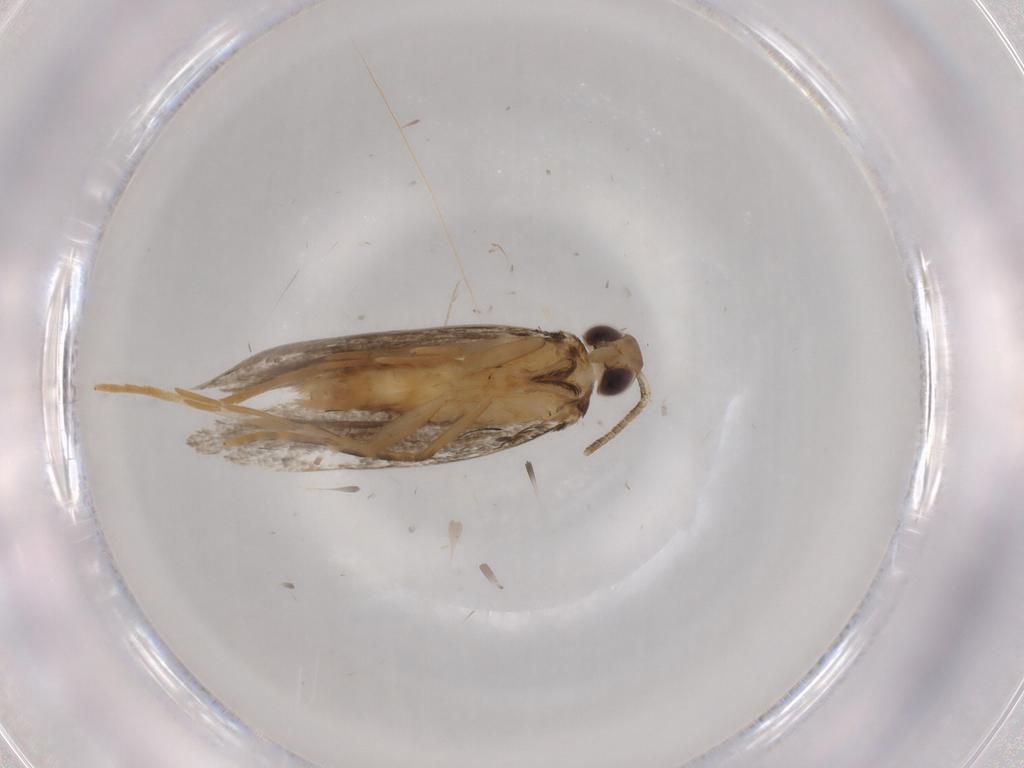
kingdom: Animalia
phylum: Arthropoda
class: Insecta
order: Lepidoptera
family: Autostichidae
